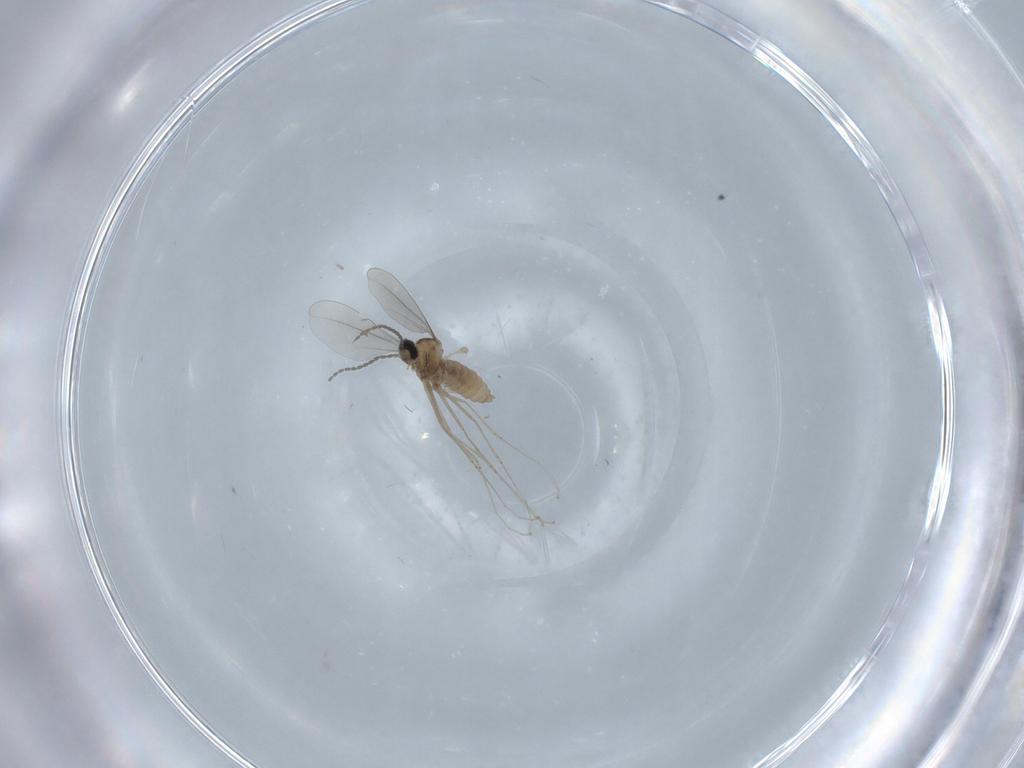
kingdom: Animalia
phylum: Arthropoda
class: Insecta
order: Diptera
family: Cecidomyiidae
